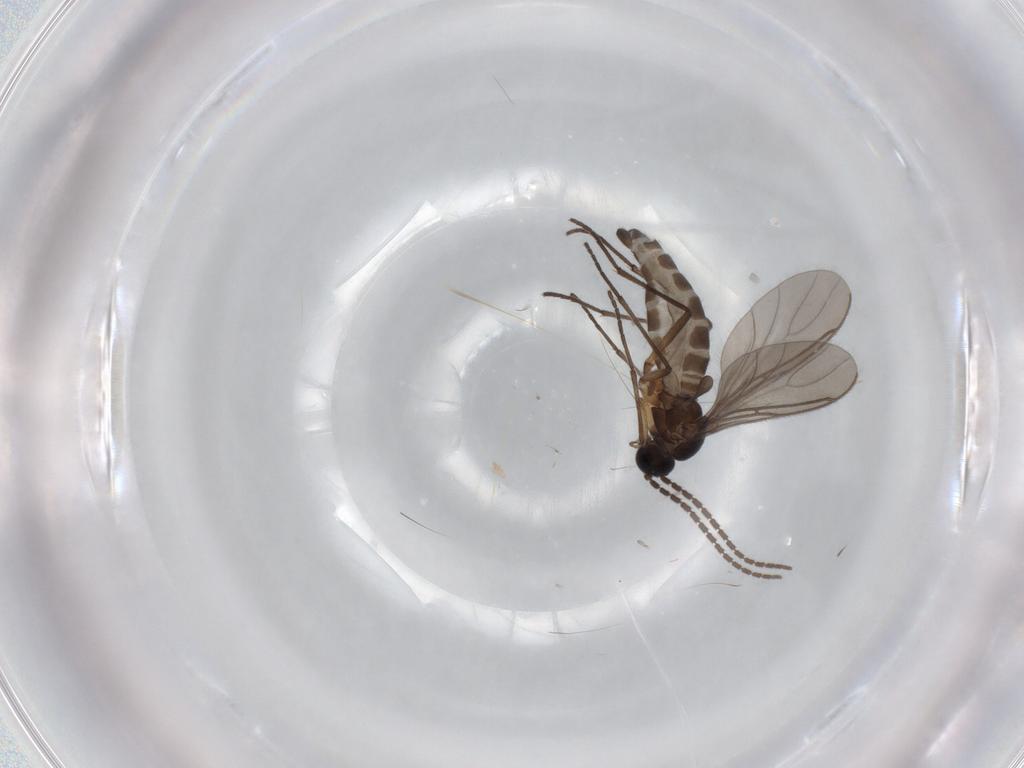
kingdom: Animalia
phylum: Arthropoda
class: Insecta
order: Diptera
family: Sciaridae
